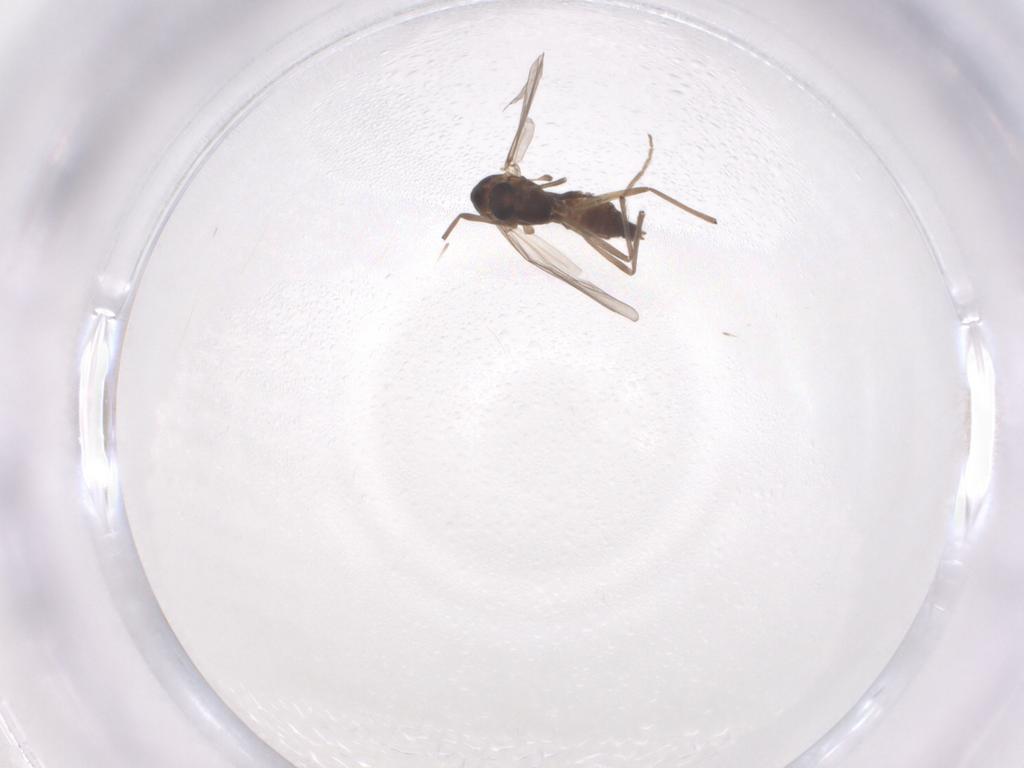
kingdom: Animalia
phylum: Arthropoda
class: Insecta
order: Diptera
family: Chironomidae
